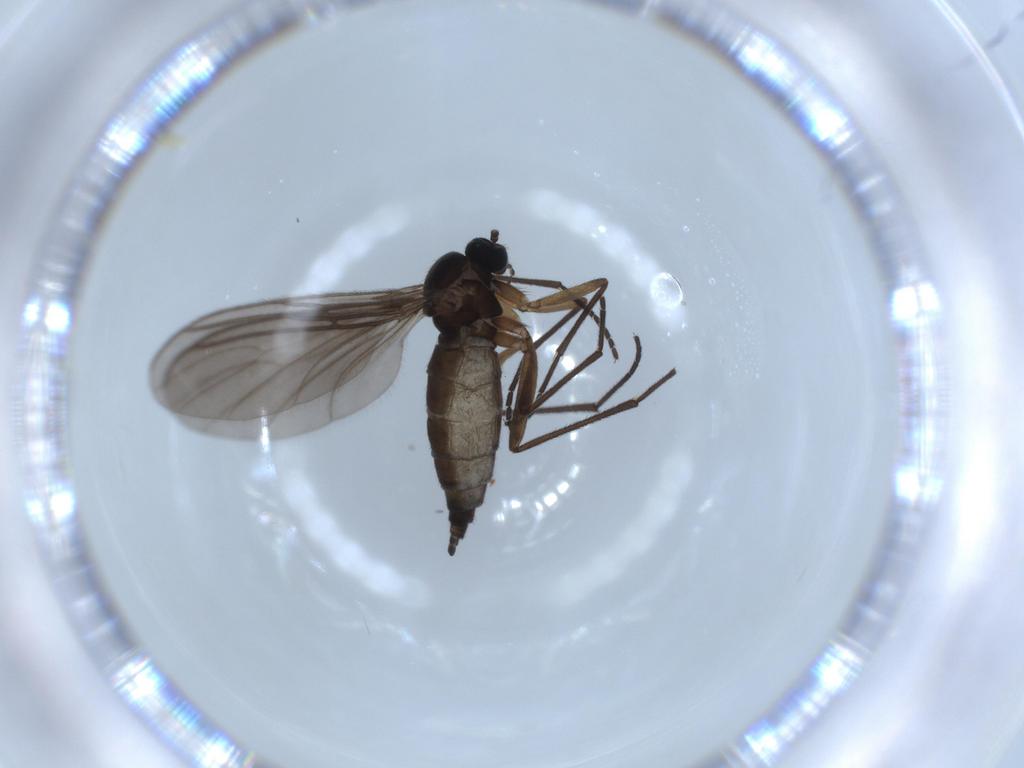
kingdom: Animalia
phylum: Arthropoda
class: Insecta
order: Diptera
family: Sciaridae
